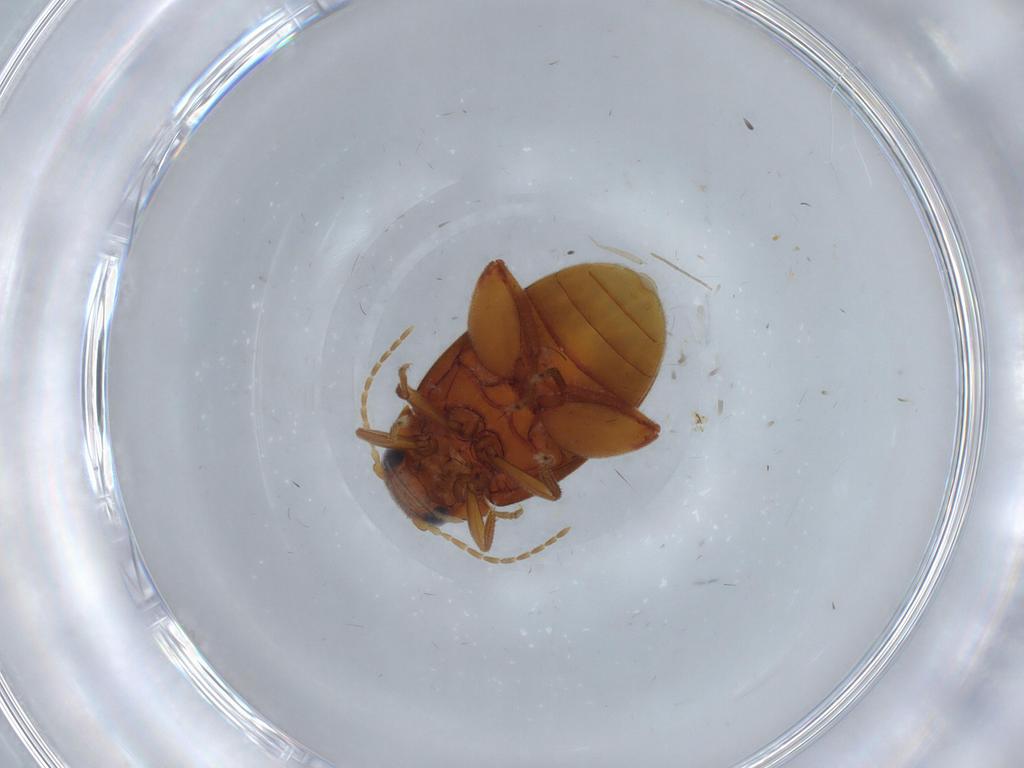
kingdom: Animalia
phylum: Arthropoda
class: Insecta
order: Coleoptera
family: Scirtidae
